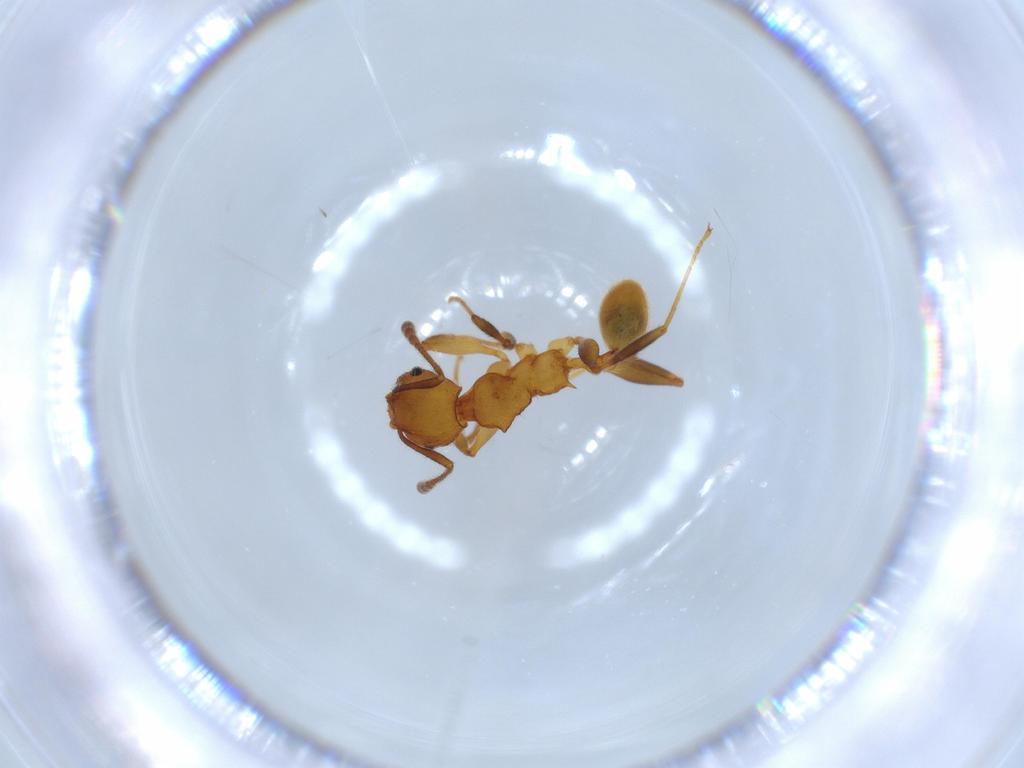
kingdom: Animalia
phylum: Arthropoda
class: Insecta
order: Hymenoptera
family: Formicidae
